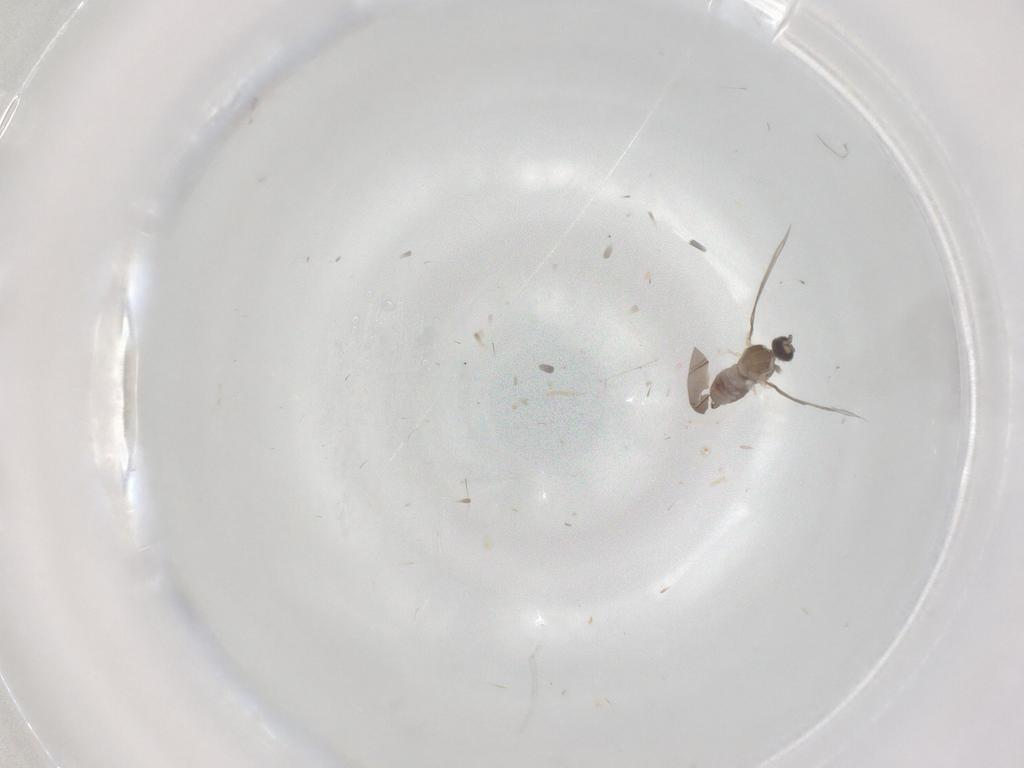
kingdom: Animalia
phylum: Arthropoda
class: Insecta
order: Diptera
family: Cecidomyiidae
